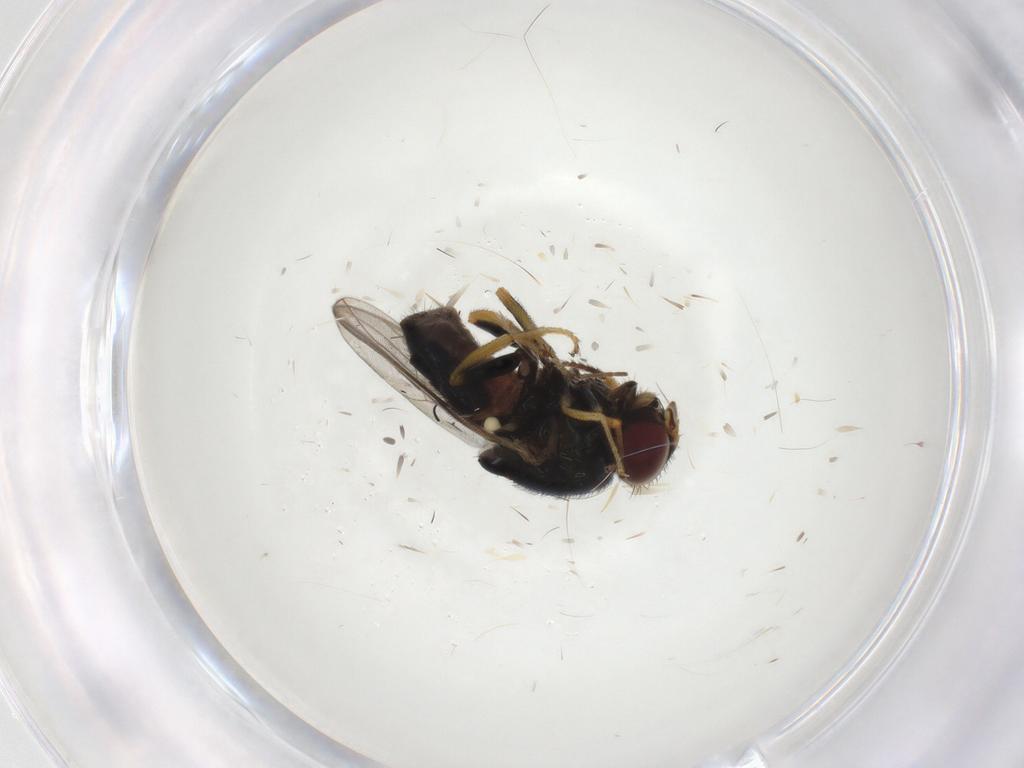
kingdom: Animalia
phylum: Arthropoda
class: Insecta
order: Diptera
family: Chloropidae
